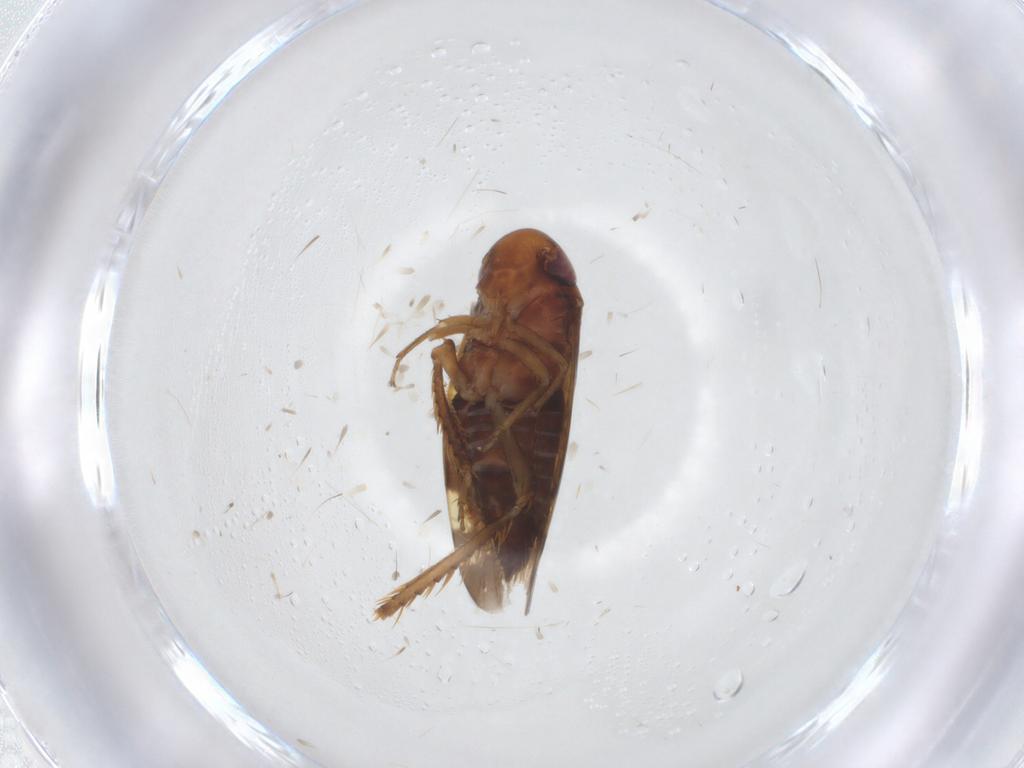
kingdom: Animalia
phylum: Arthropoda
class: Insecta
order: Hemiptera
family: Cicadellidae
